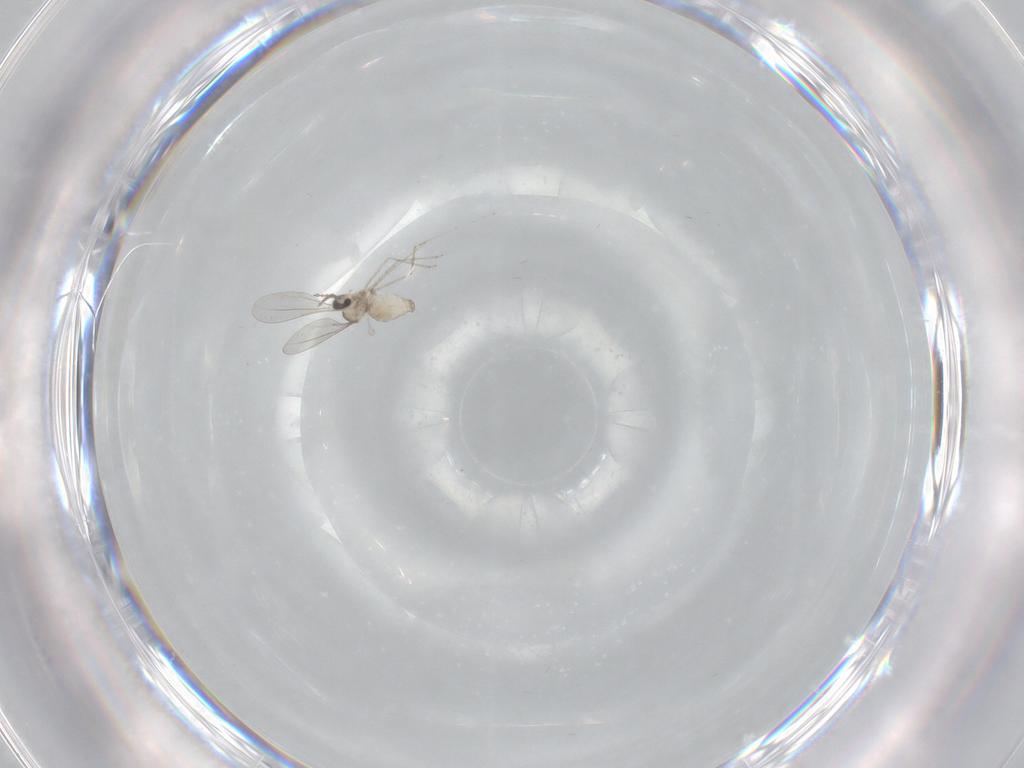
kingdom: Animalia
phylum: Arthropoda
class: Insecta
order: Diptera
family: Cecidomyiidae
